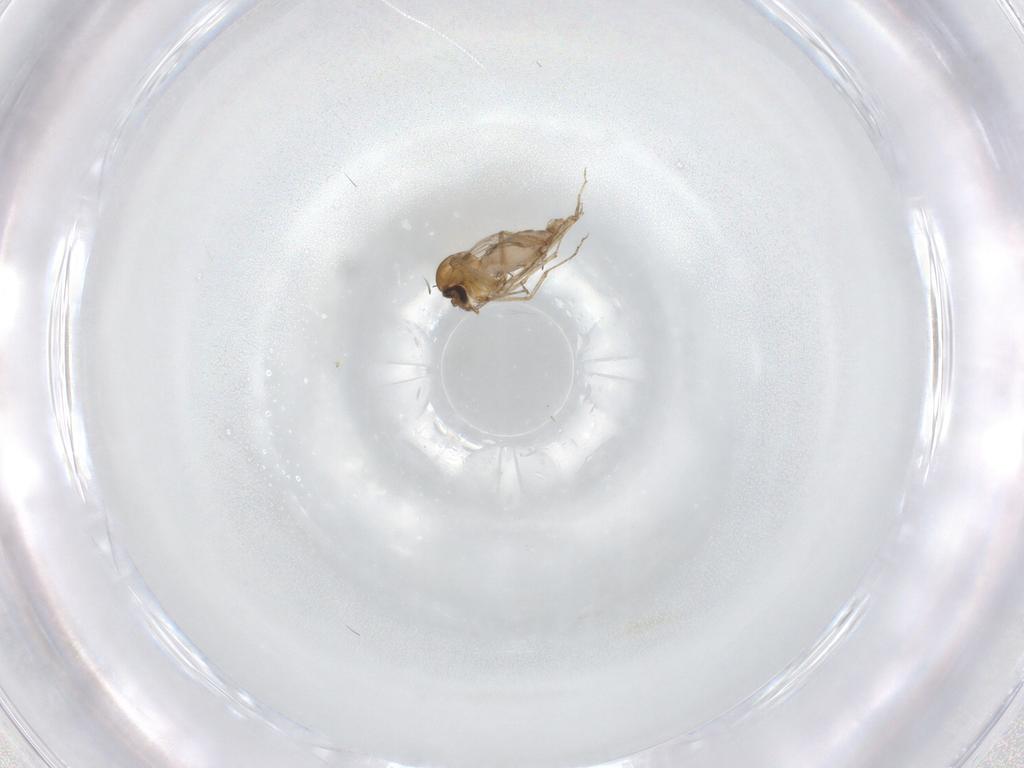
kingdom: Animalia
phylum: Arthropoda
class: Insecta
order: Diptera
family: Ceratopogonidae
